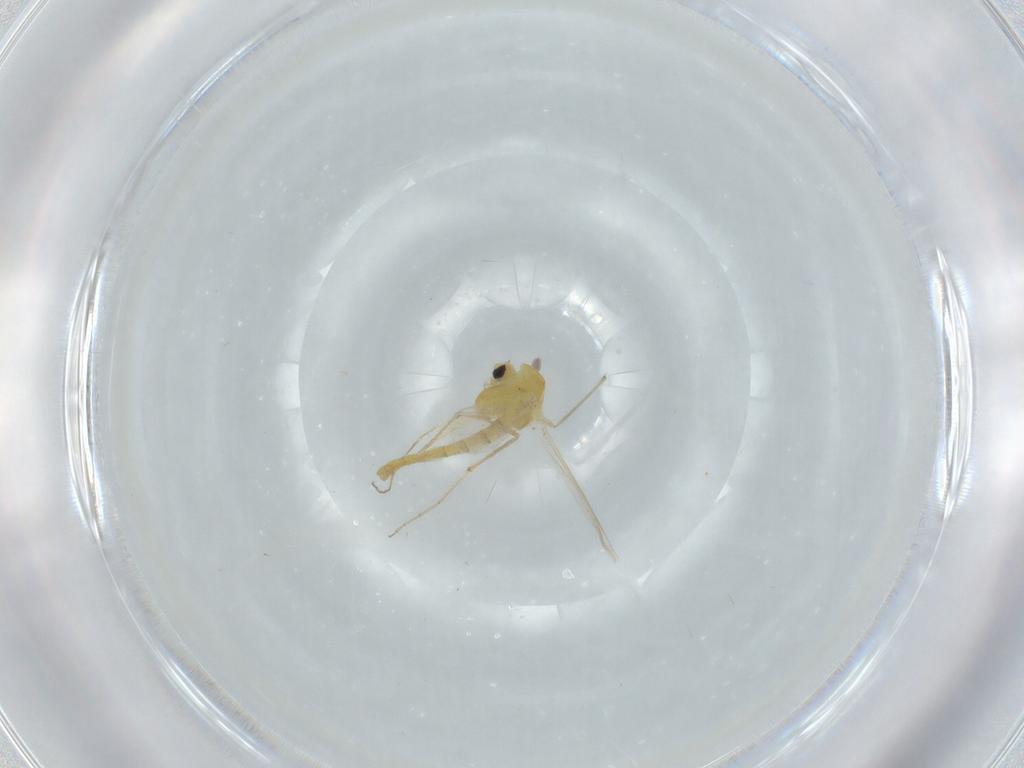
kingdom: Animalia
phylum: Arthropoda
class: Insecta
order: Diptera
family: Chironomidae
